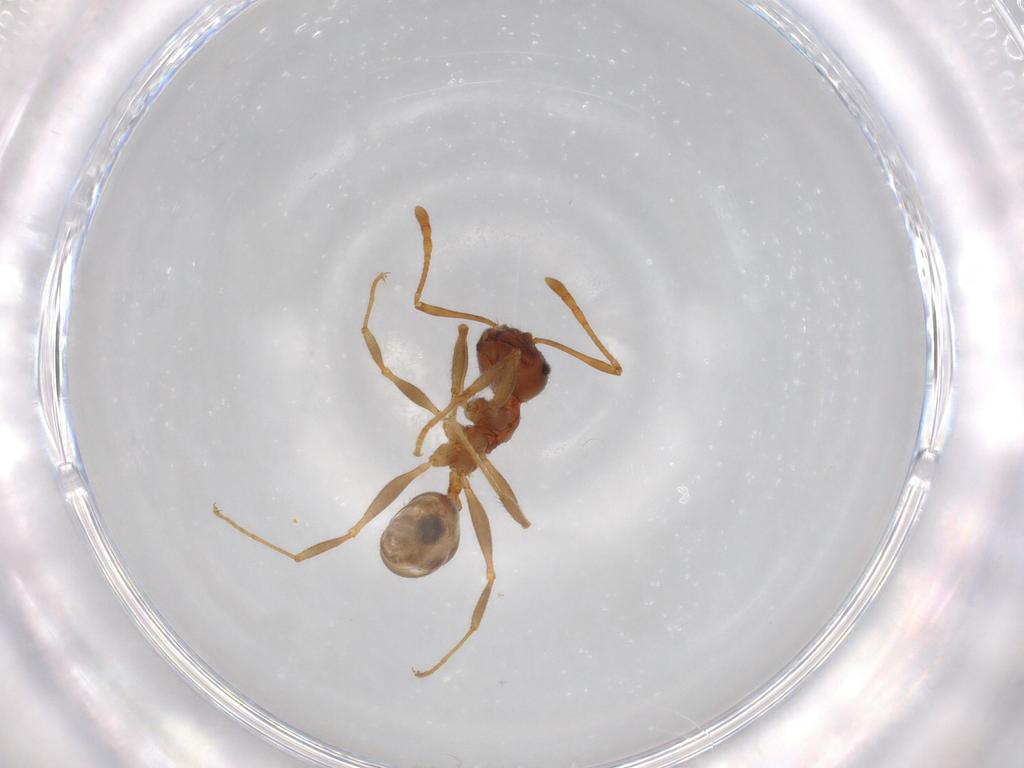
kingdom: Animalia
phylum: Arthropoda
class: Insecta
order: Hymenoptera
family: Formicidae
